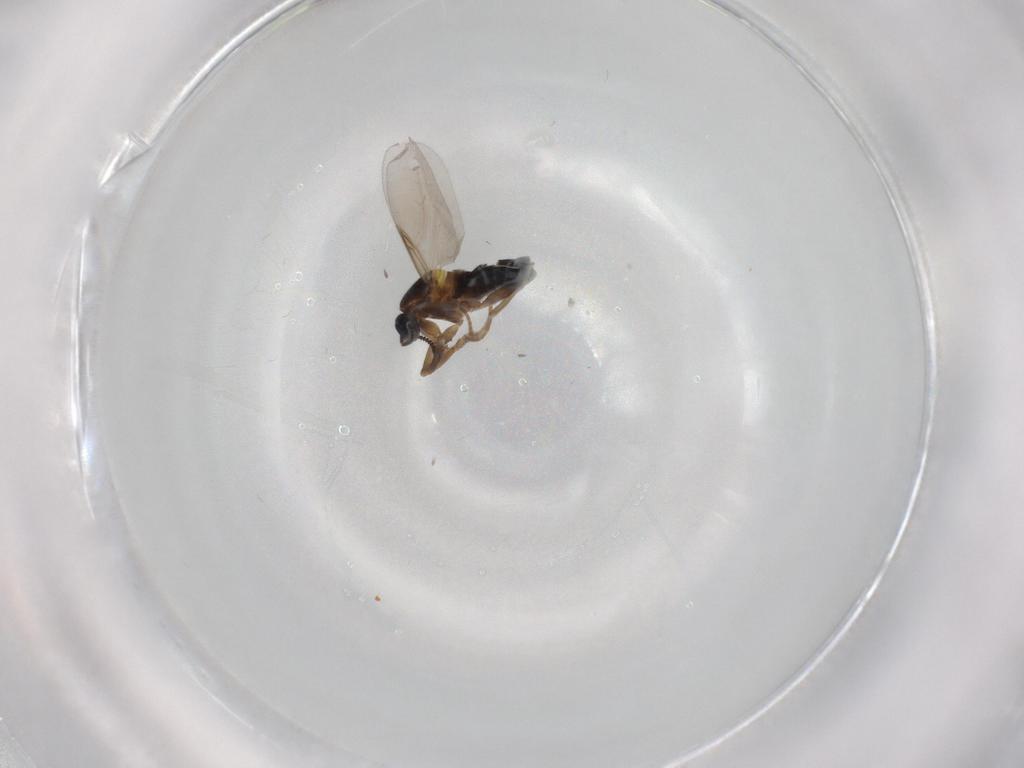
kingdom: Animalia
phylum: Arthropoda
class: Insecta
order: Diptera
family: Scatopsidae
